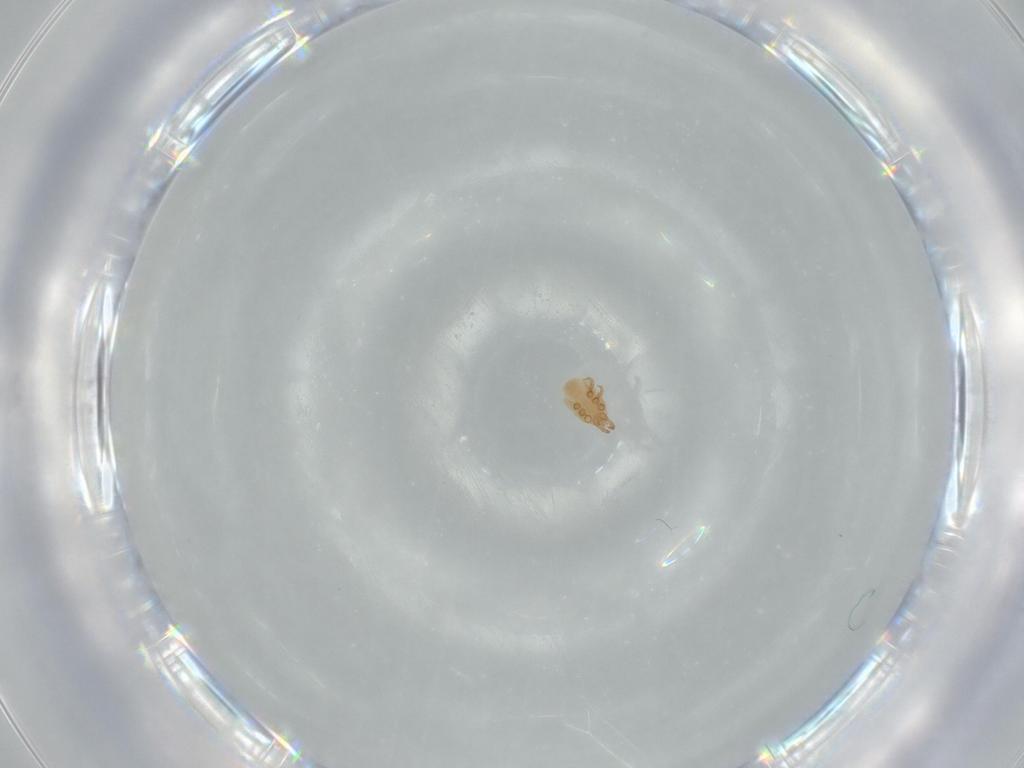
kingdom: Animalia
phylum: Arthropoda
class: Arachnida
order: Mesostigmata
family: Dinychidae
